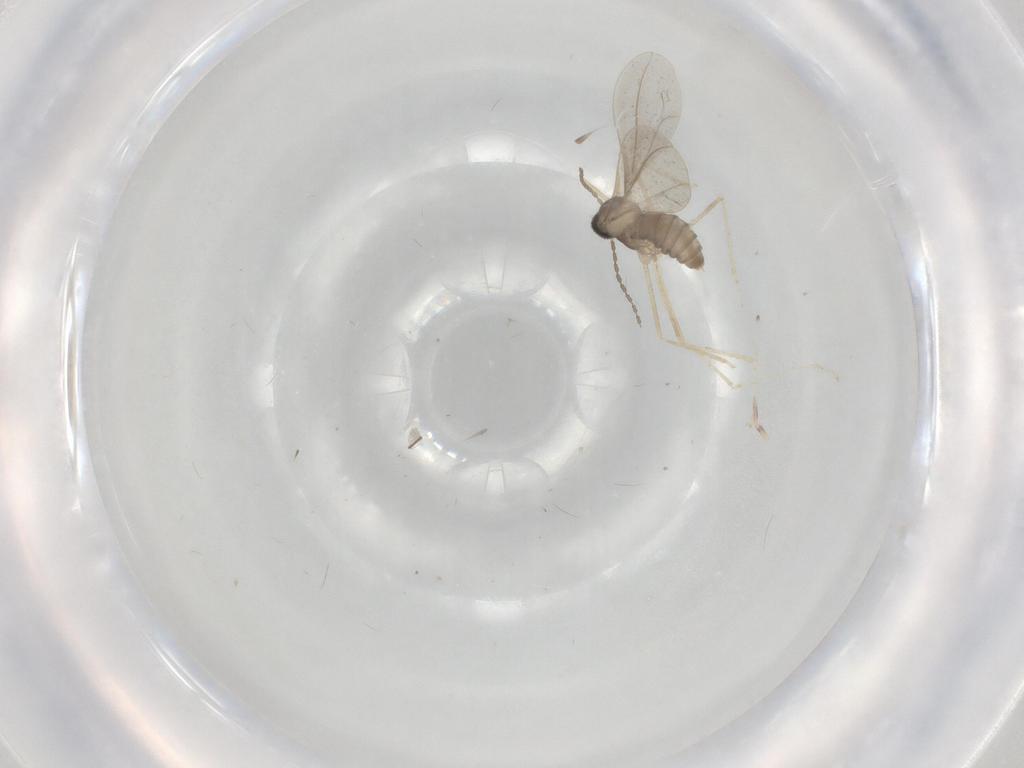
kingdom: Animalia
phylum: Arthropoda
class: Insecta
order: Diptera
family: Cecidomyiidae
